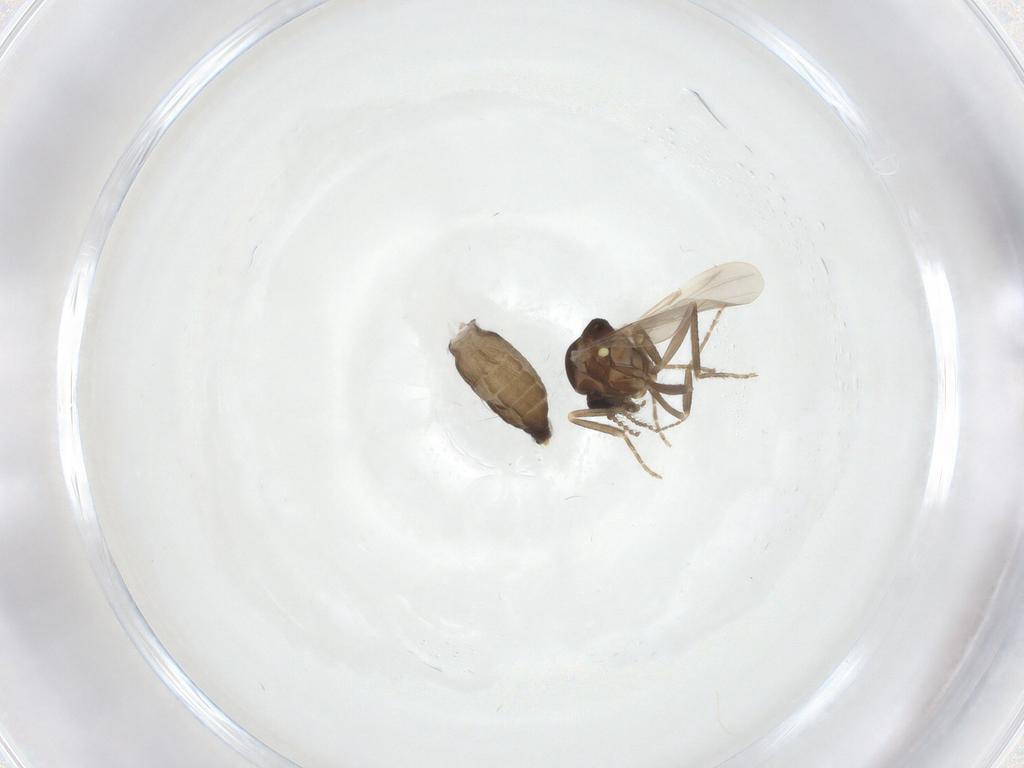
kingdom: Animalia
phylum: Arthropoda
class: Insecta
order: Diptera
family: Ceratopogonidae
